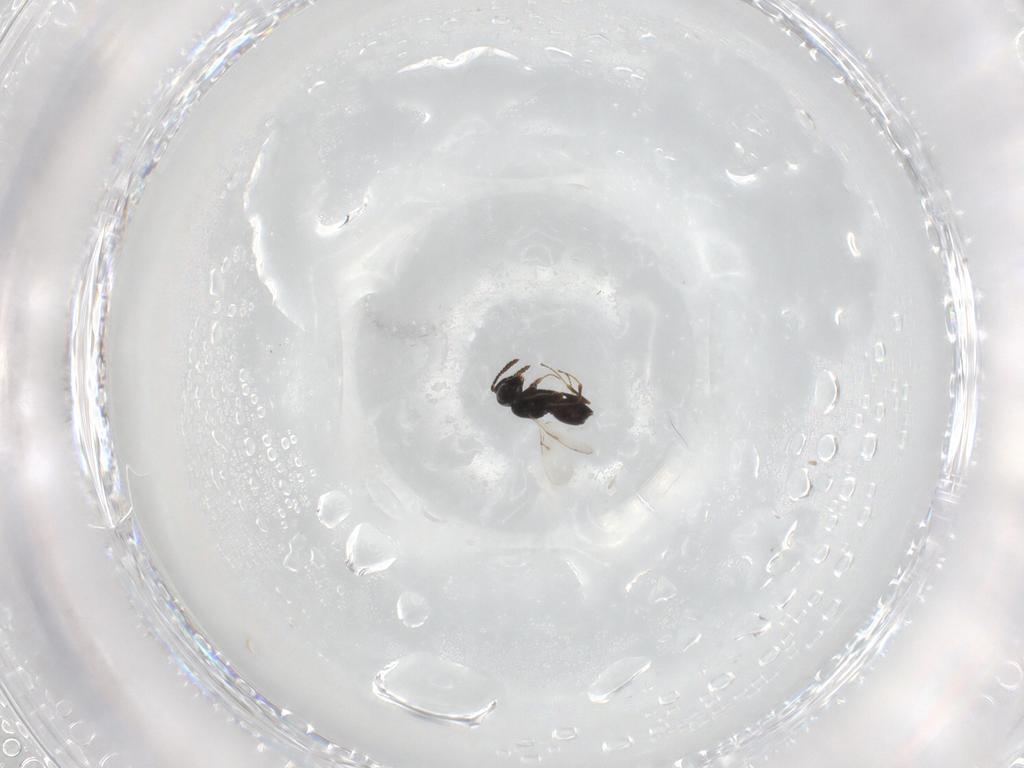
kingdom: Animalia
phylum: Arthropoda
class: Insecta
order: Hymenoptera
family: Scelionidae
